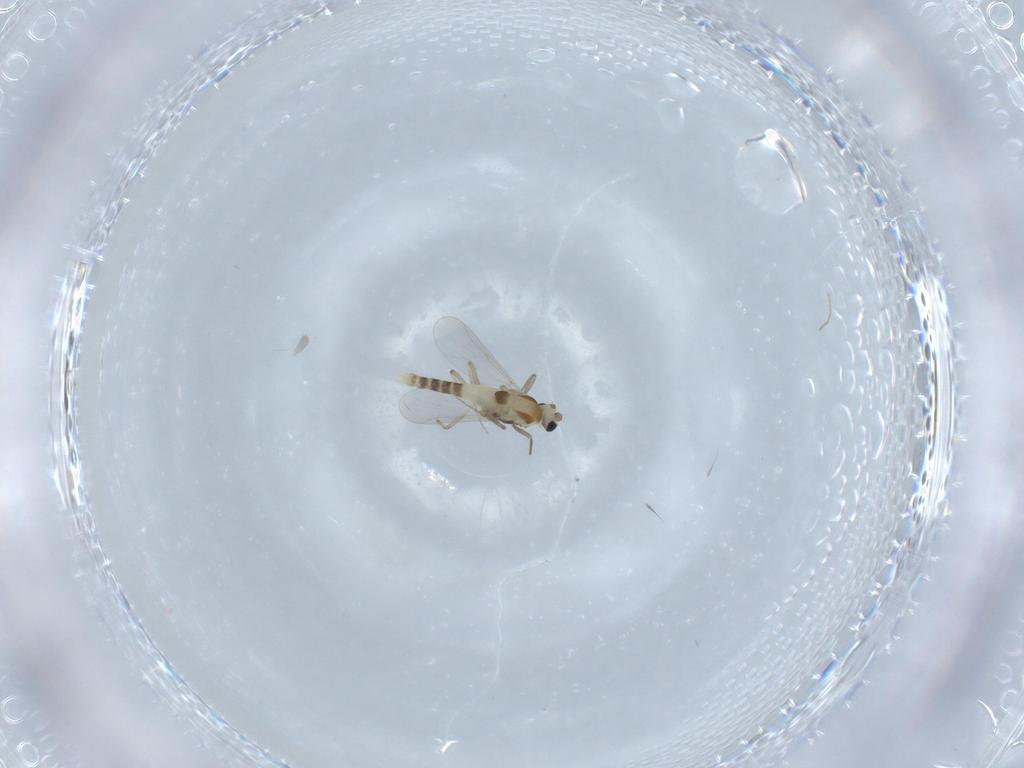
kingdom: Animalia
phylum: Arthropoda
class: Insecta
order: Diptera
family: Chironomidae
